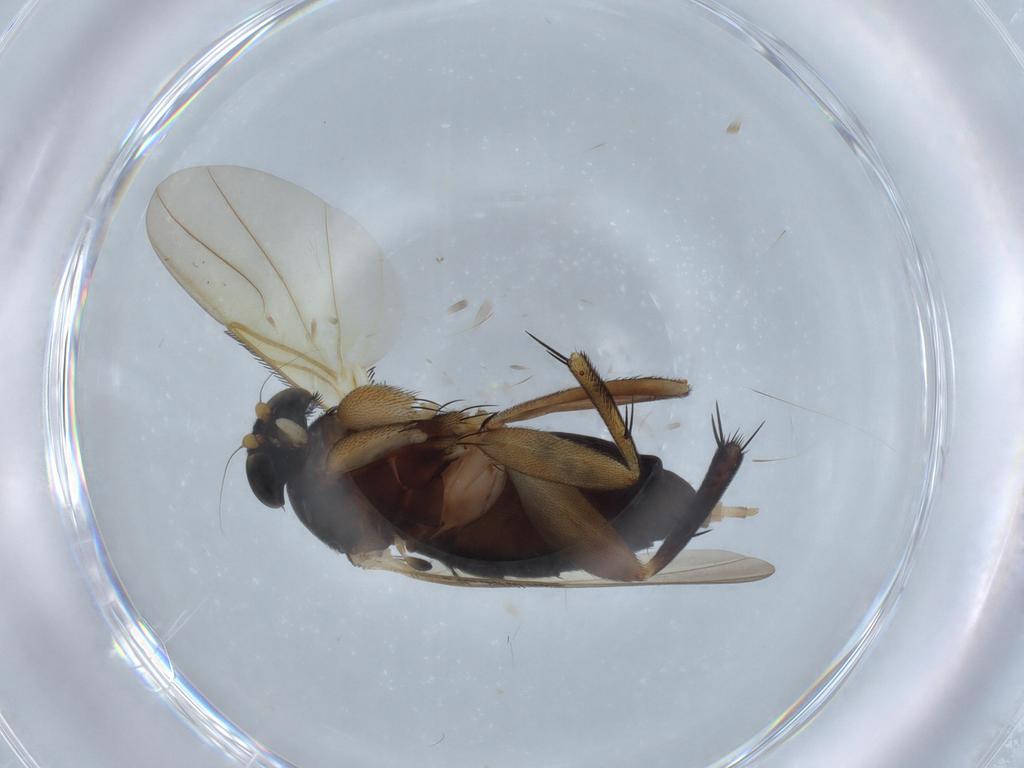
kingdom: Animalia
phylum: Arthropoda
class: Insecta
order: Diptera
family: Phoridae
